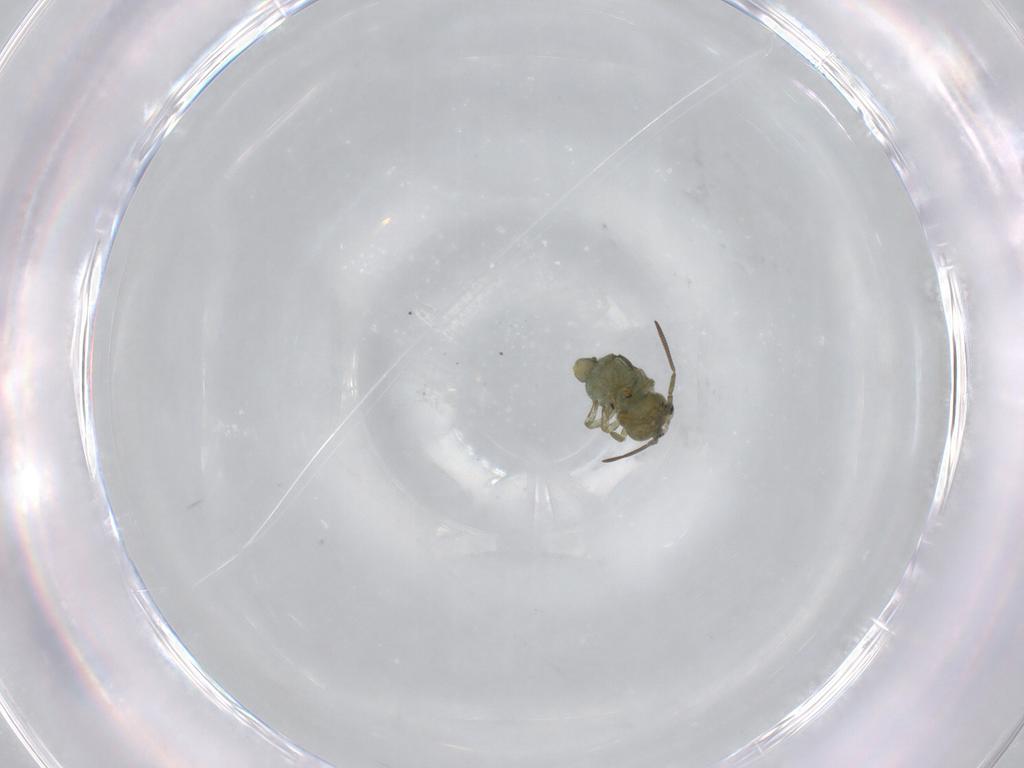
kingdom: Animalia
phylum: Arthropoda
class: Collembola
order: Symphypleona
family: Sminthuridae
